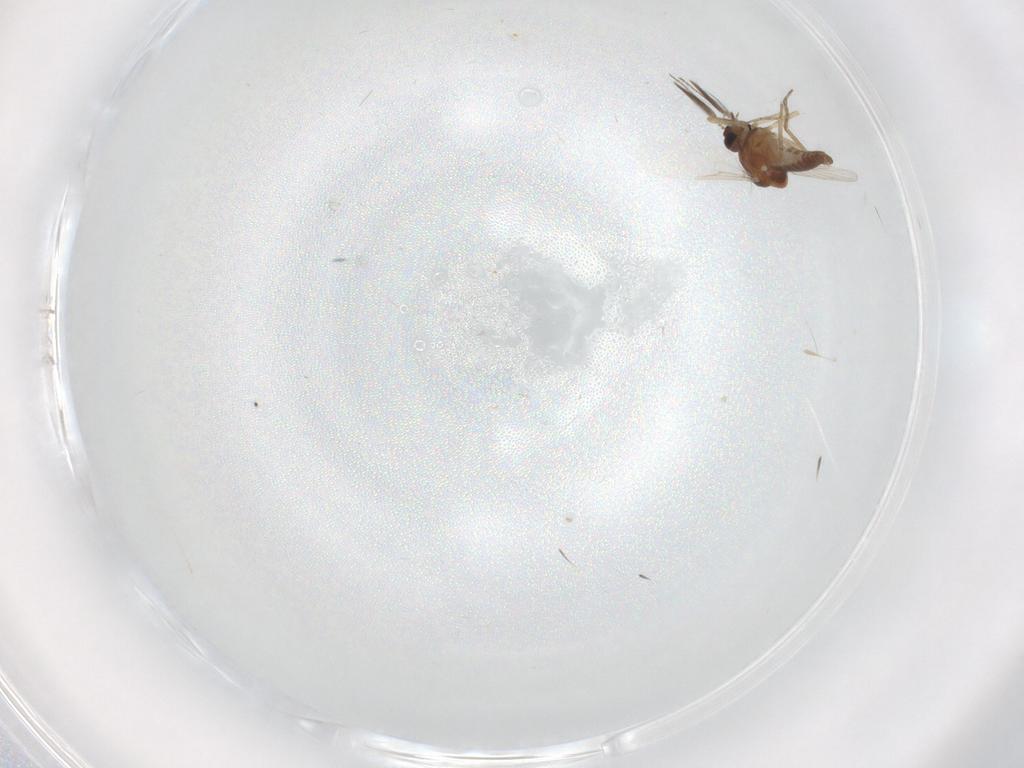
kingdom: Animalia
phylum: Arthropoda
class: Insecta
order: Diptera
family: Ceratopogonidae
